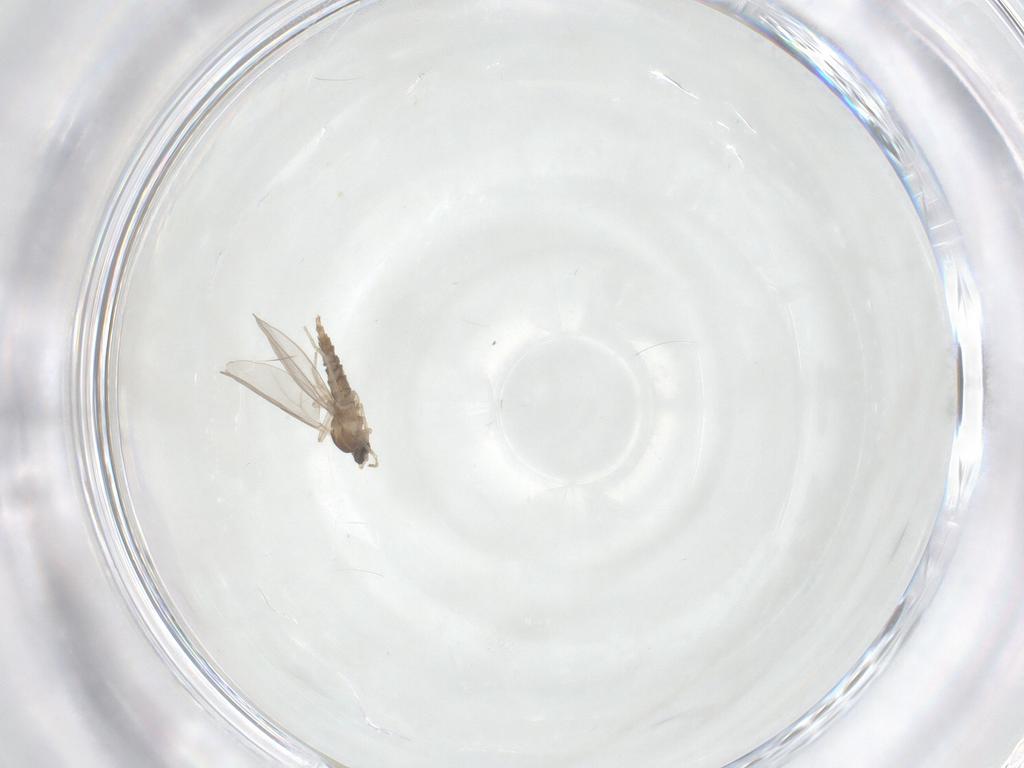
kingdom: Animalia
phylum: Arthropoda
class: Insecta
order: Diptera
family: Cecidomyiidae
